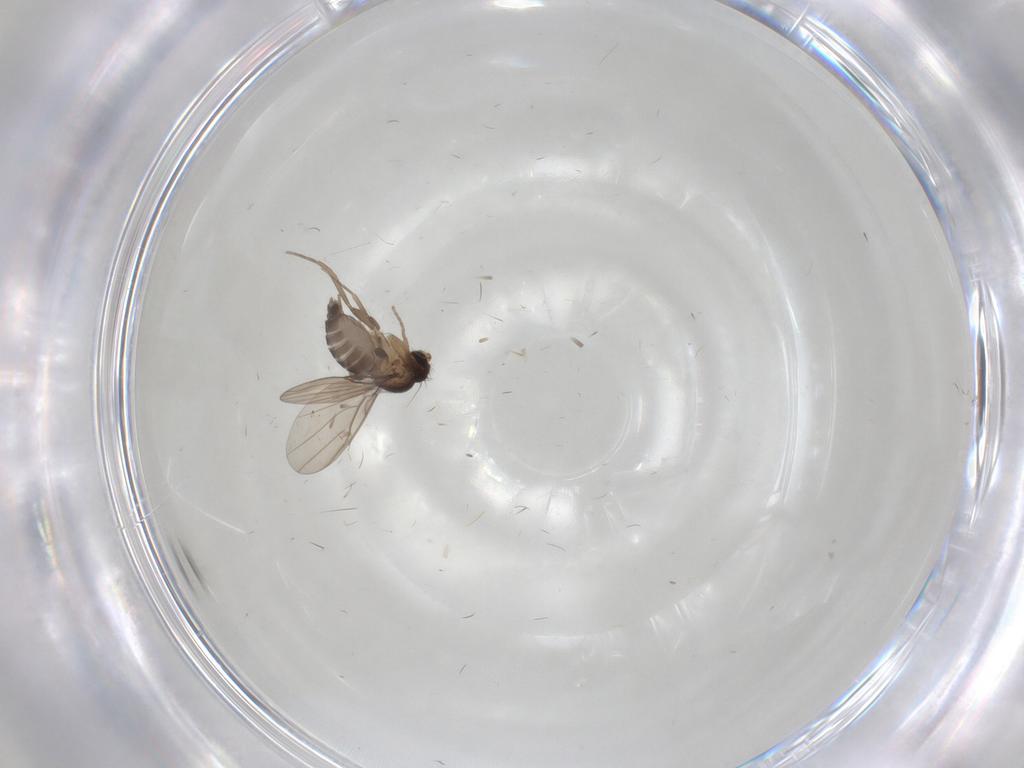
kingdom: Animalia
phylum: Arthropoda
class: Insecta
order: Diptera
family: Phoridae
